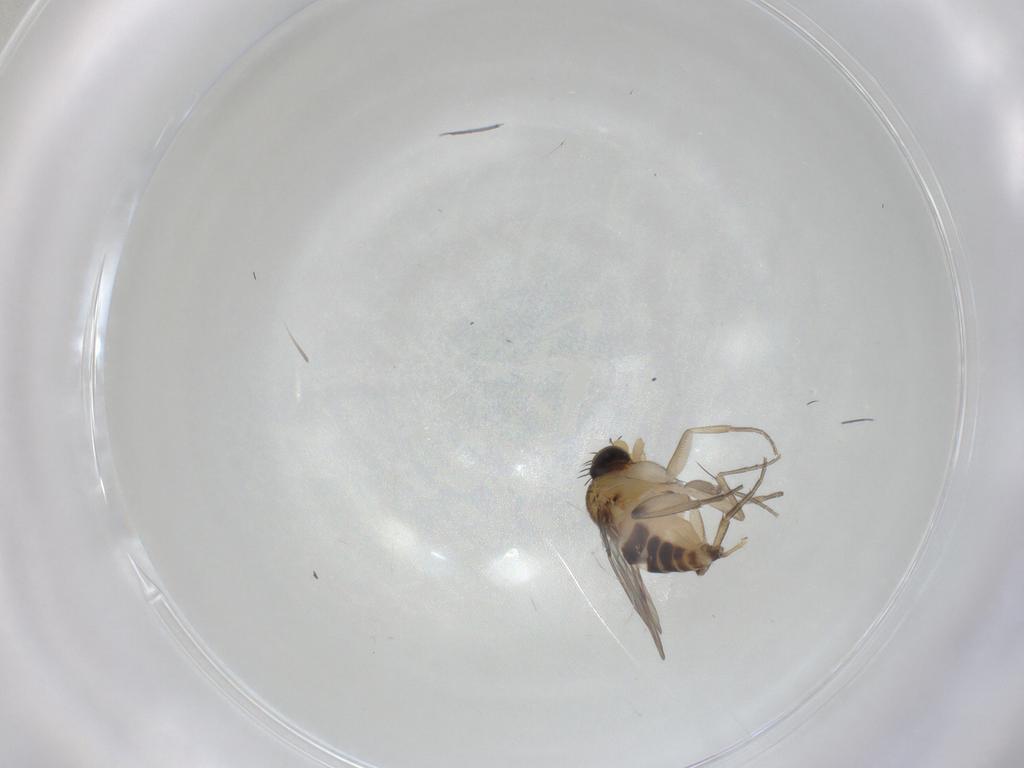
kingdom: Animalia
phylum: Arthropoda
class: Insecta
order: Diptera
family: Phoridae
